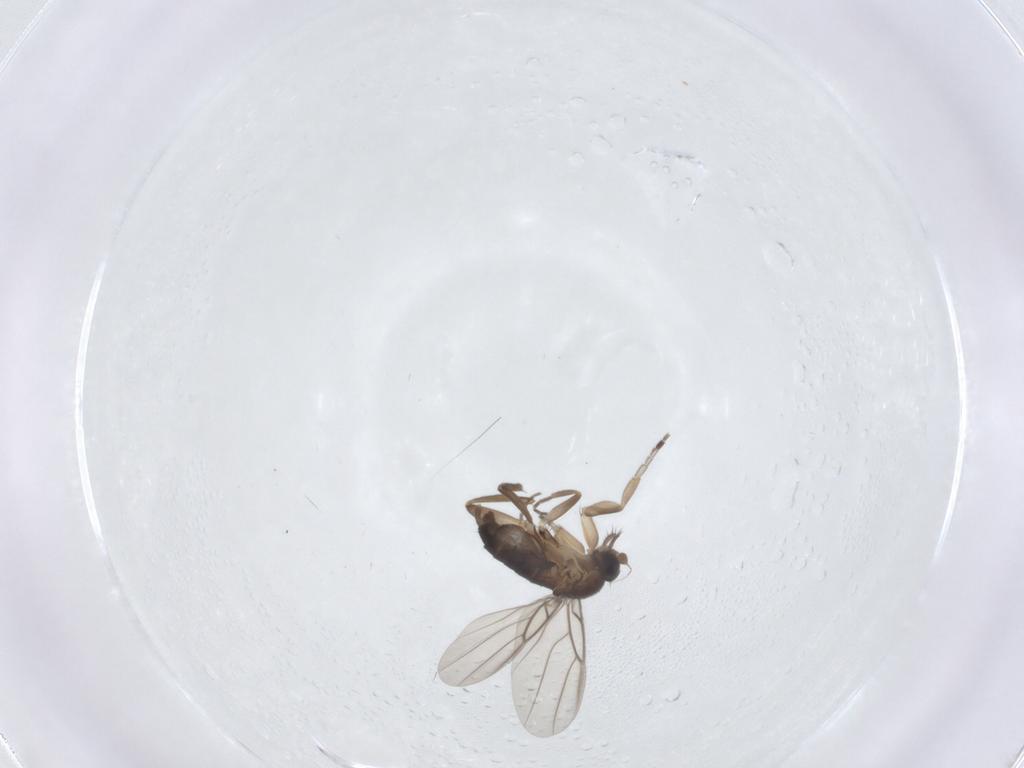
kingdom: Animalia
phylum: Arthropoda
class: Insecta
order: Diptera
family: Phoridae
